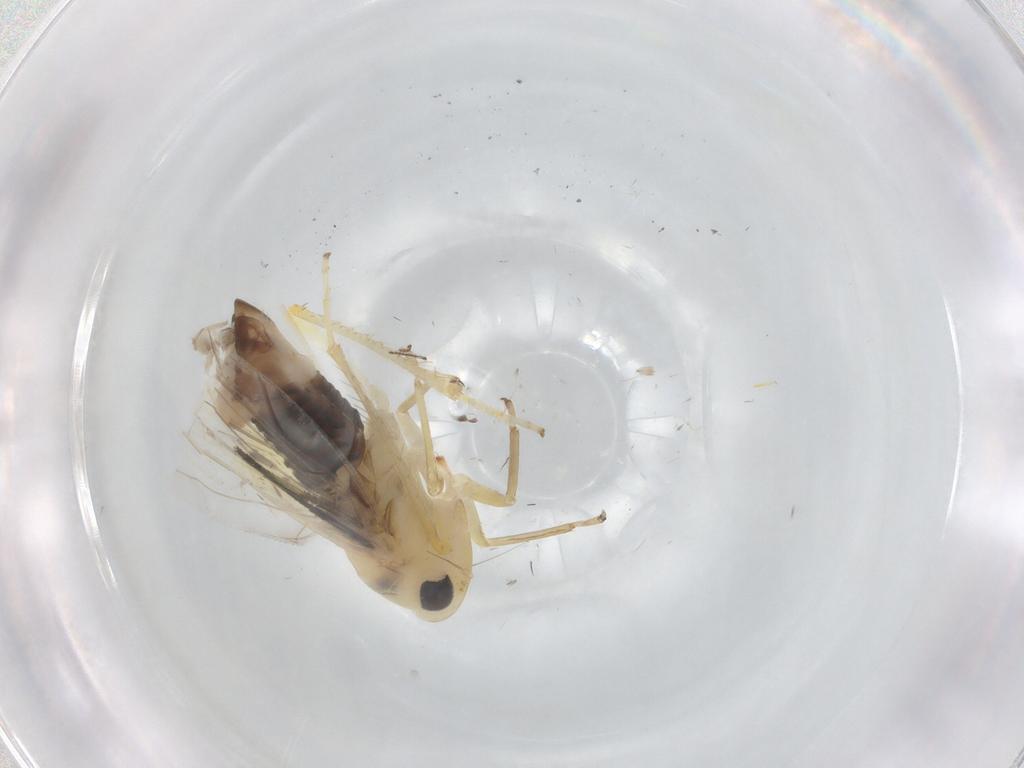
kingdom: Animalia
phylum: Arthropoda
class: Insecta
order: Hemiptera
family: Cicadellidae
